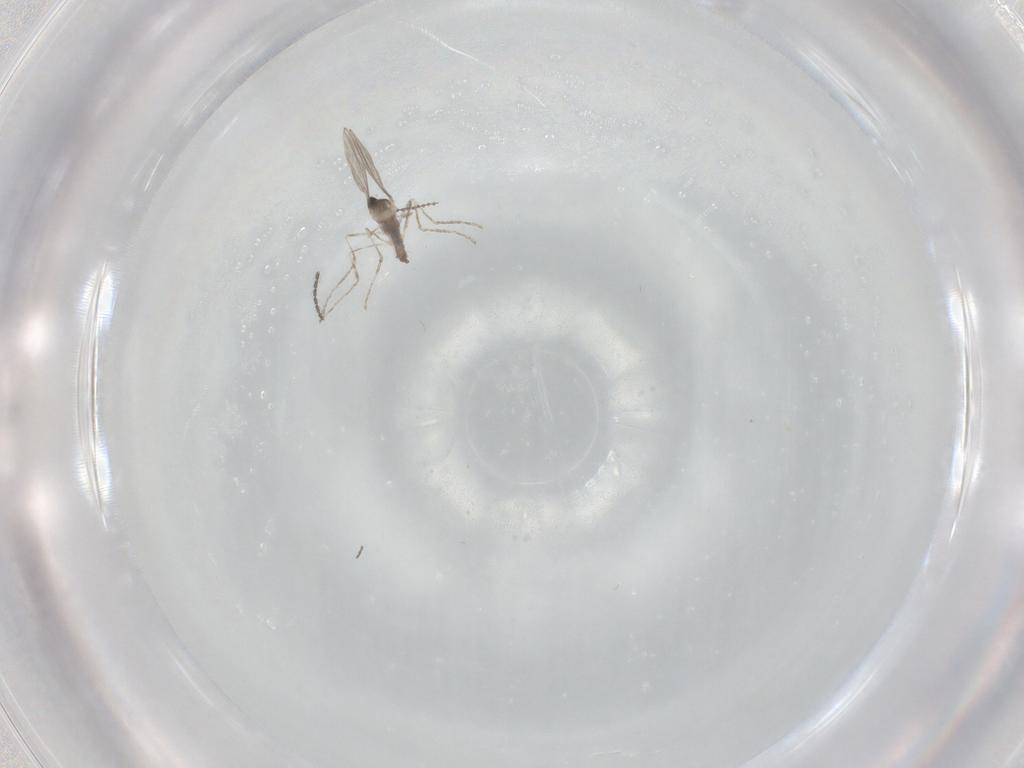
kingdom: Animalia
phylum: Arthropoda
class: Insecta
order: Diptera
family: Cecidomyiidae
